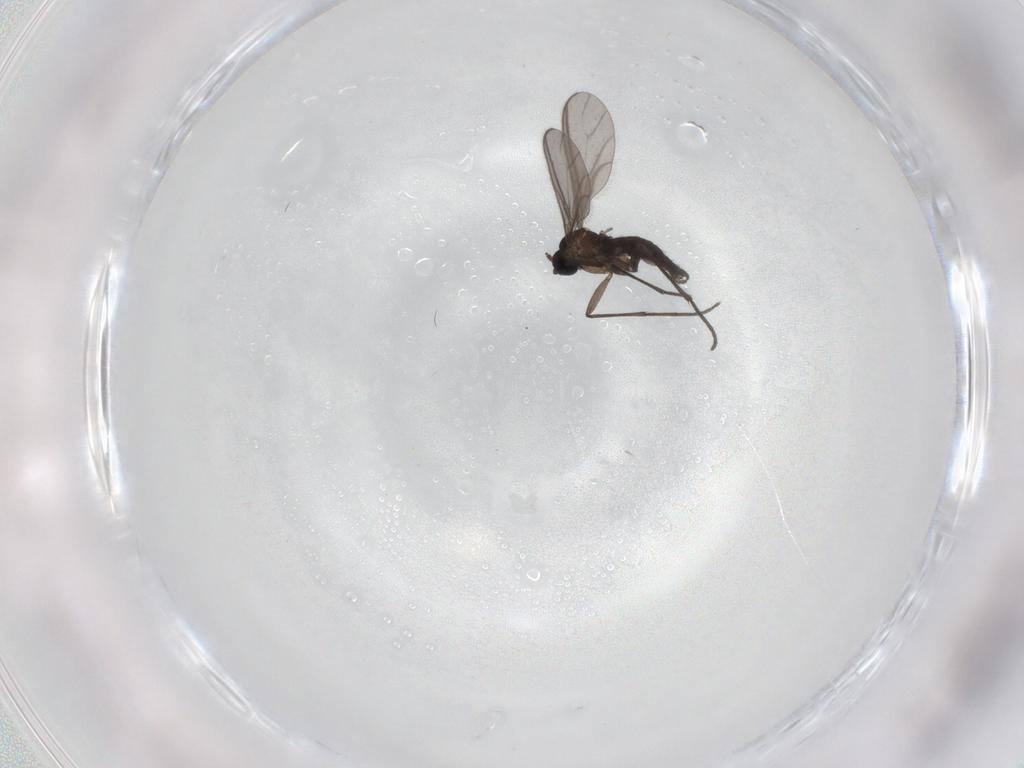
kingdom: Animalia
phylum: Arthropoda
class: Insecta
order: Diptera
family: Sciaridae
